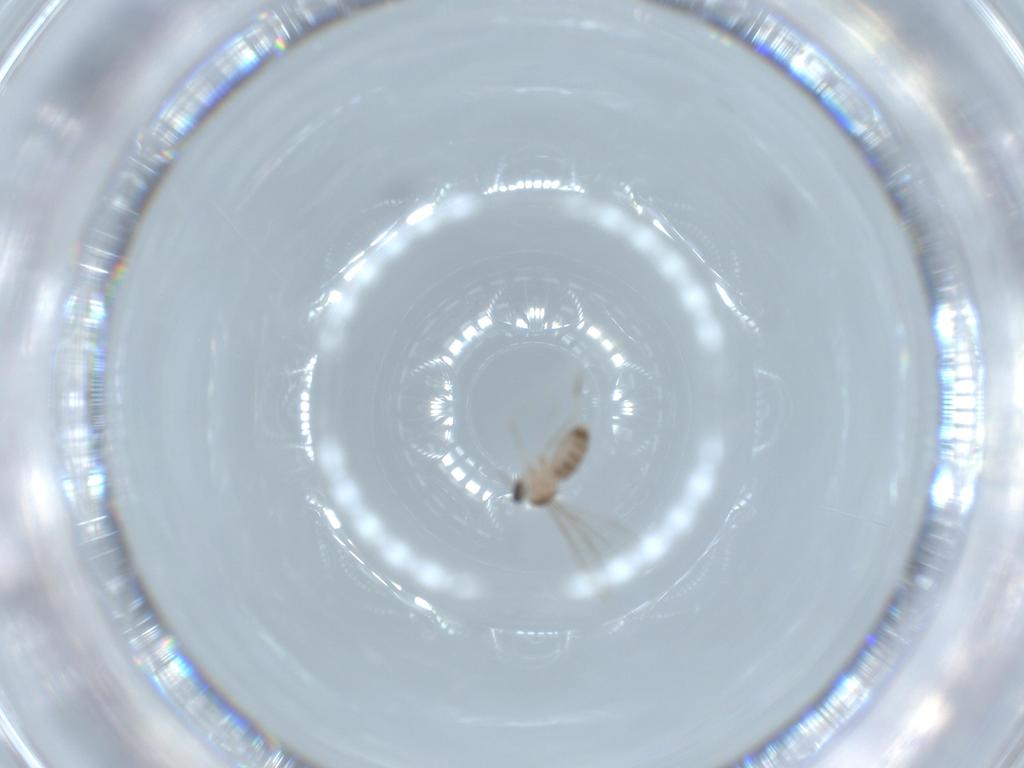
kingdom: Animalia
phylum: Arthropoda
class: Insecta
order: Diptera
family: Cecidomyiidae
